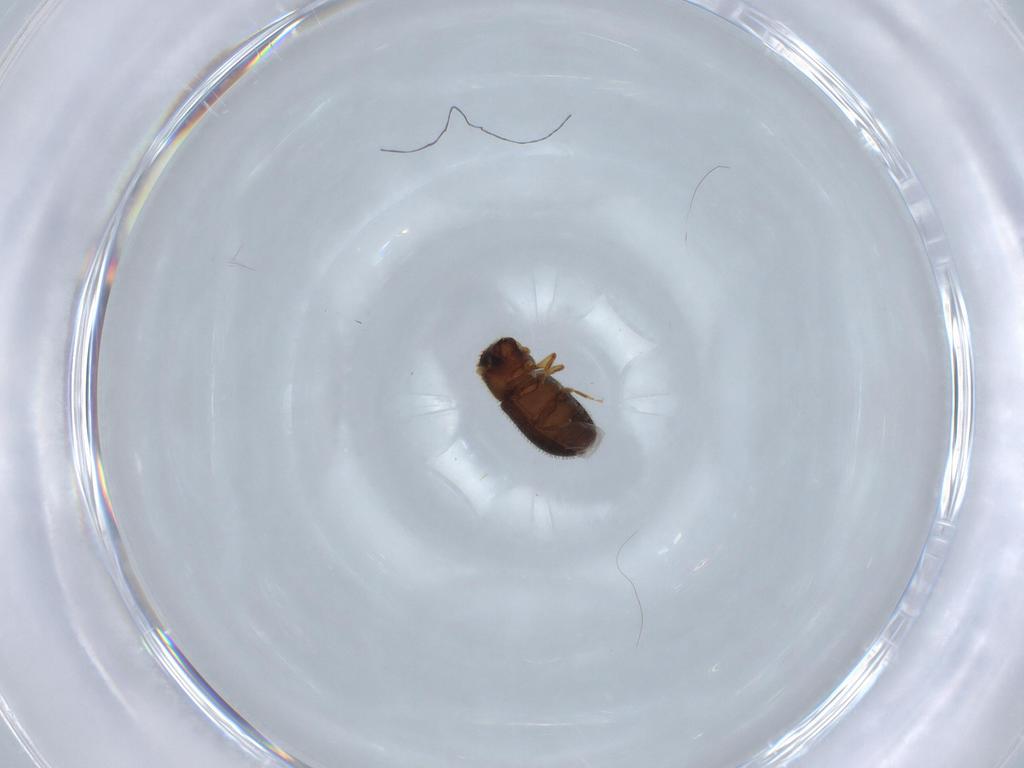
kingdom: Animalia
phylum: Arthropoda
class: Insecta
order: Coleoptera
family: Curculionidae
